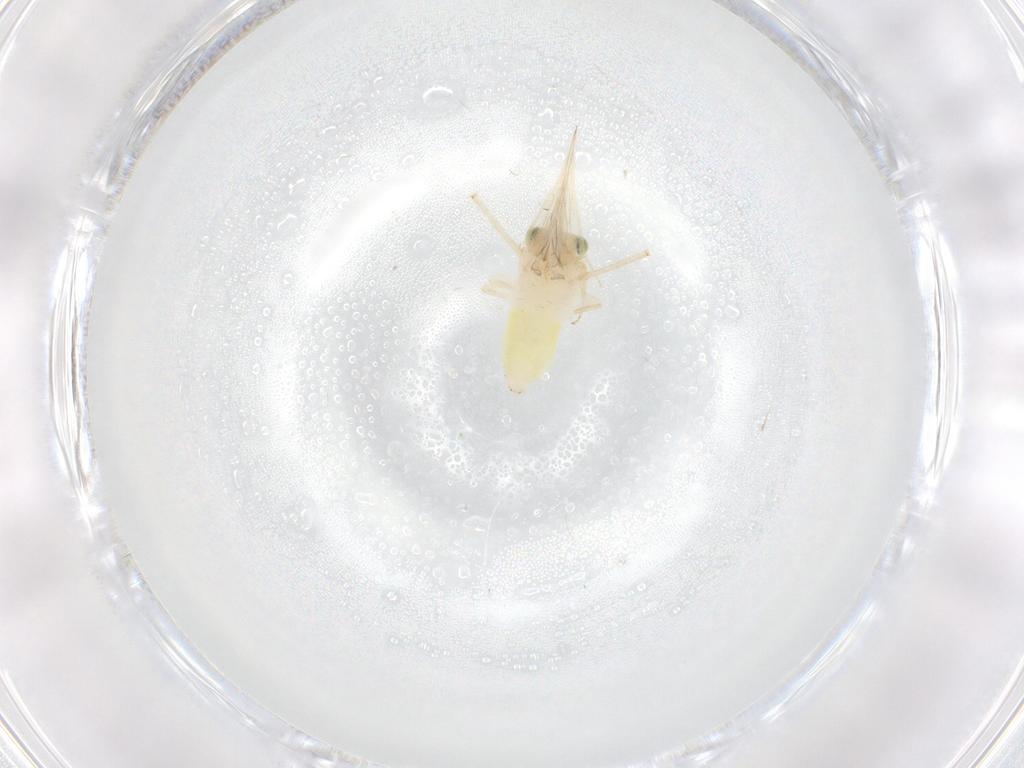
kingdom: Animalia
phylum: Arthropoda
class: Insecta
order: Psocodea
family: Lepidopsocidae
